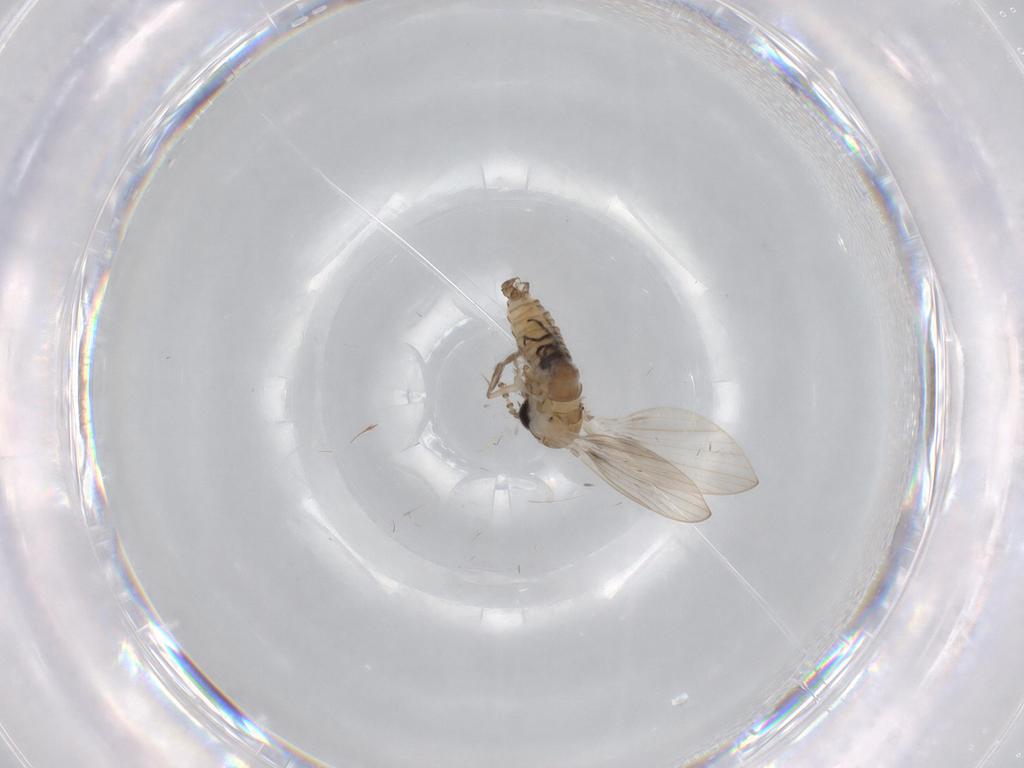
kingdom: Animalia
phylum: Arthropoda
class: Insecta
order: Diptera
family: Psychodidae
